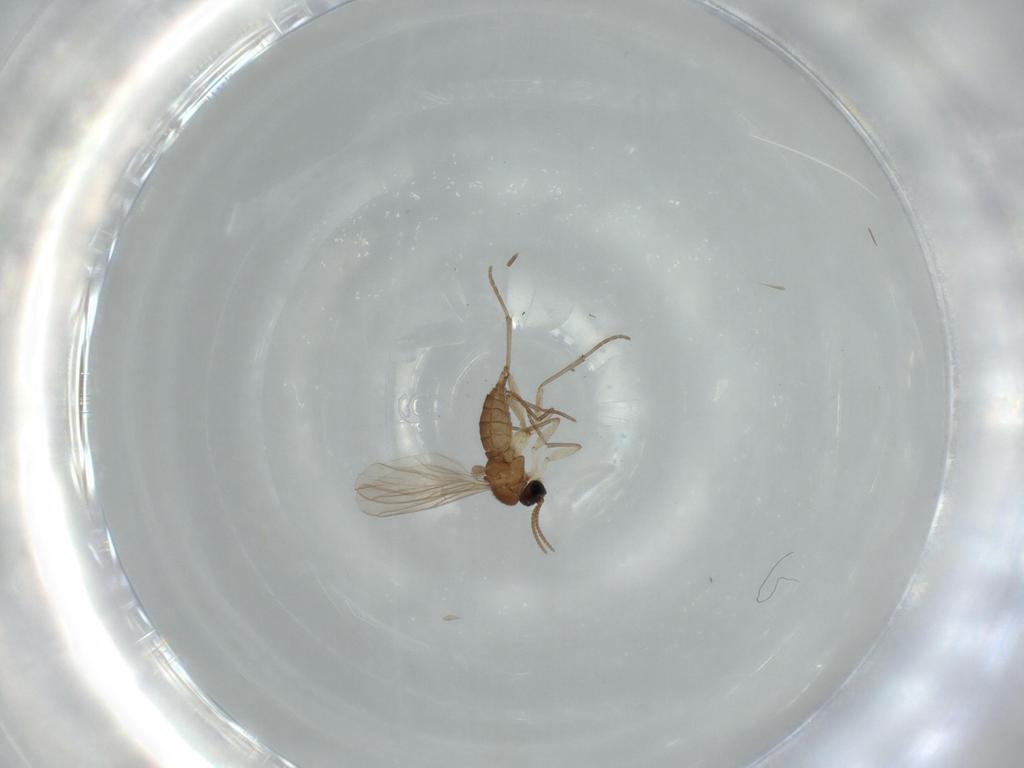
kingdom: Animalia
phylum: Arthropoda
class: Insecta
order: Diptera
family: Sciaridae
